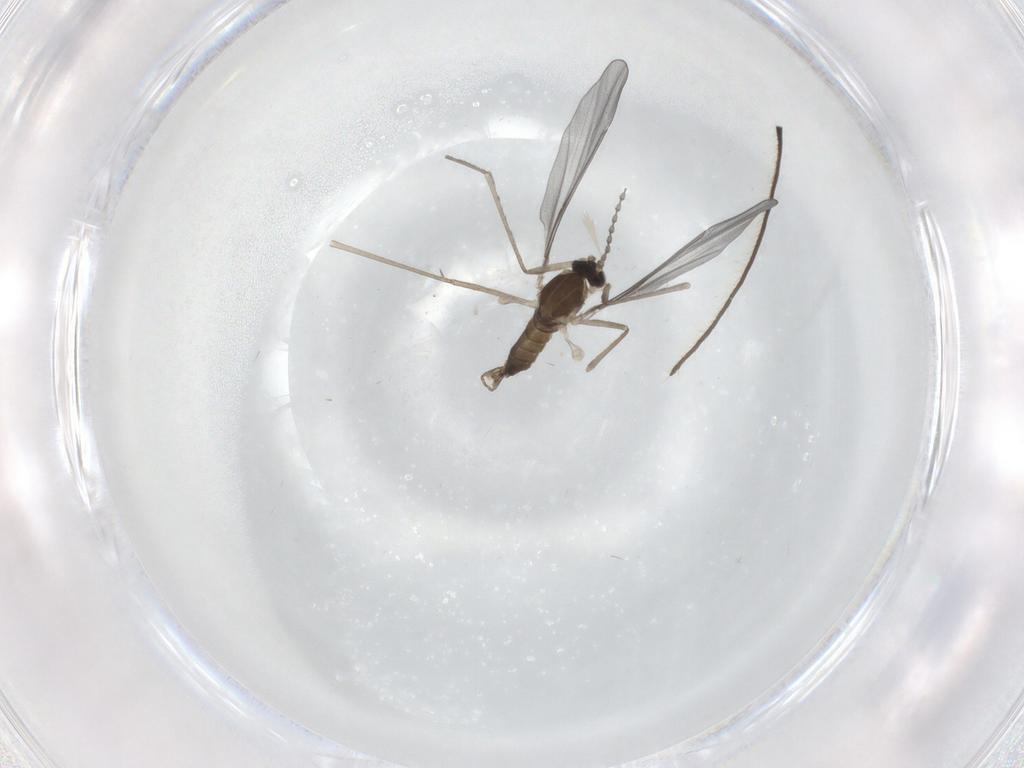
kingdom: Animalia
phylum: Arthropoda
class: Insecta
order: Diptera
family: Cecidomyiidae
